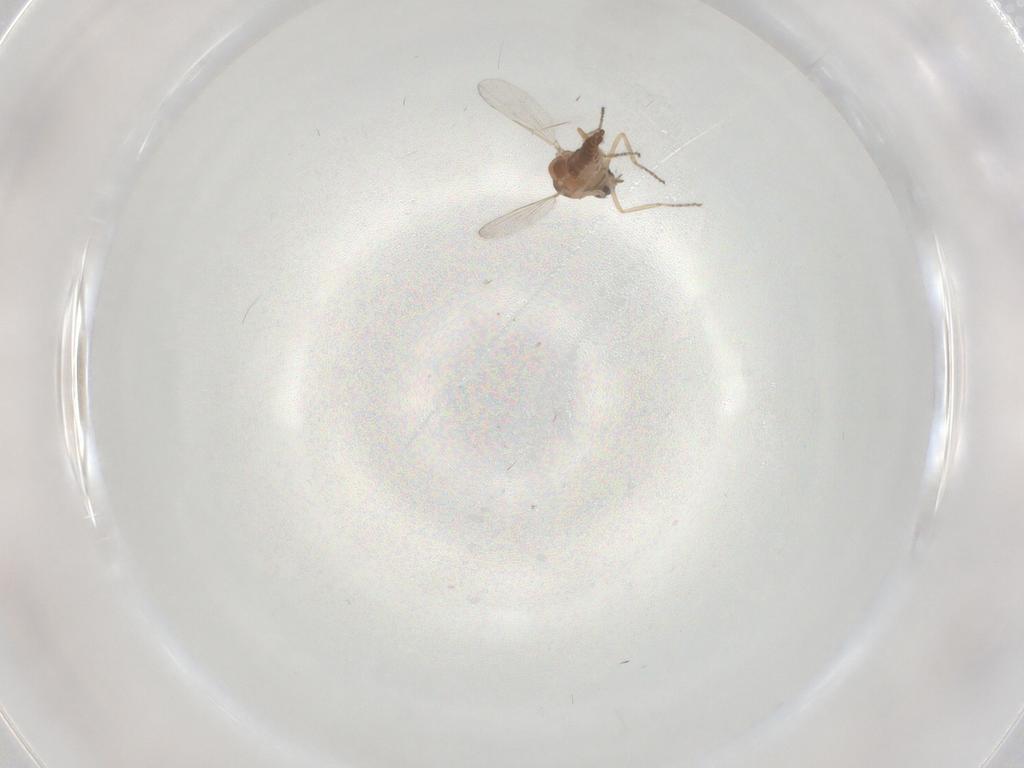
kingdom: Animalia
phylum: Arthropoda
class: Insecta
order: Diptera
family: Ceratopogonidae
